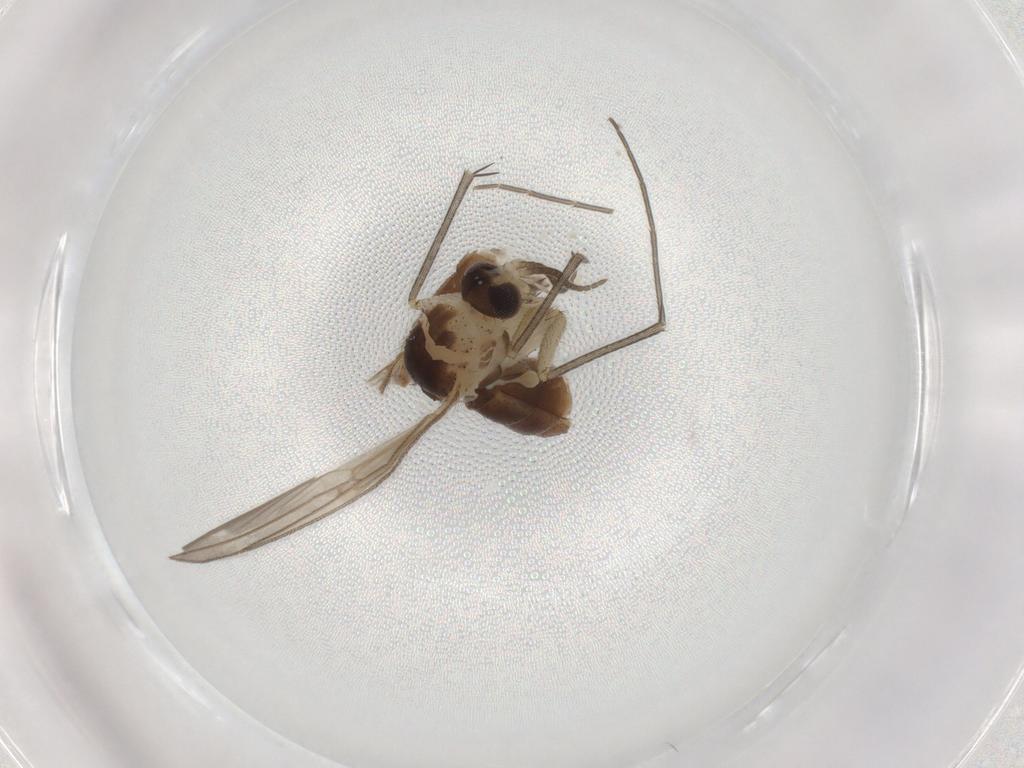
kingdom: Animalia
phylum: Arthropoda
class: Insecta
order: Diptera
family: Mycetophilidae
